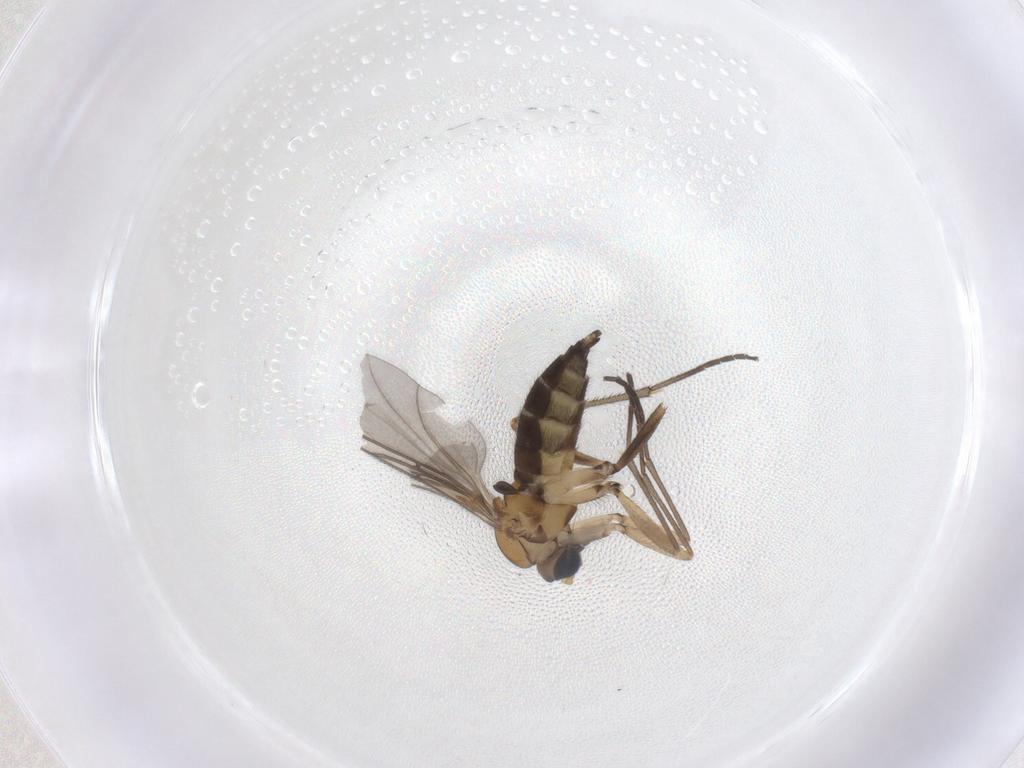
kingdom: Animalia
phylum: Arthropoda
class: Insecta
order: Diptera
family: Sciaridae
